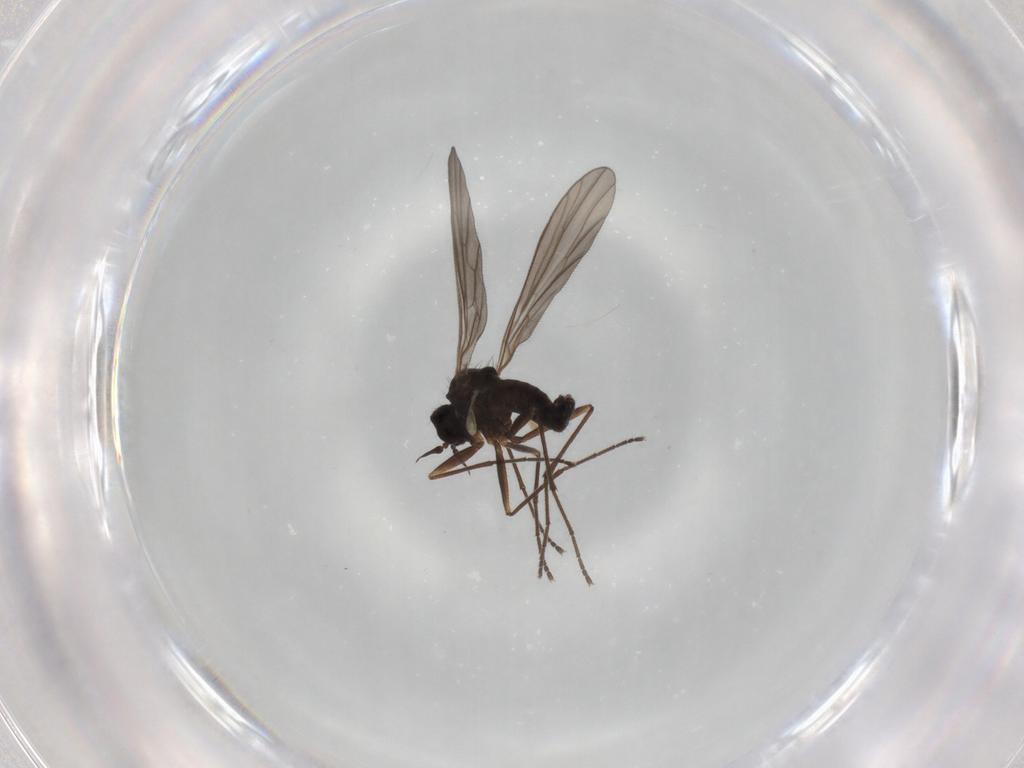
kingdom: Animalia
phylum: Arthropoda
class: Insecta
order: Diptera
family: Empididae
